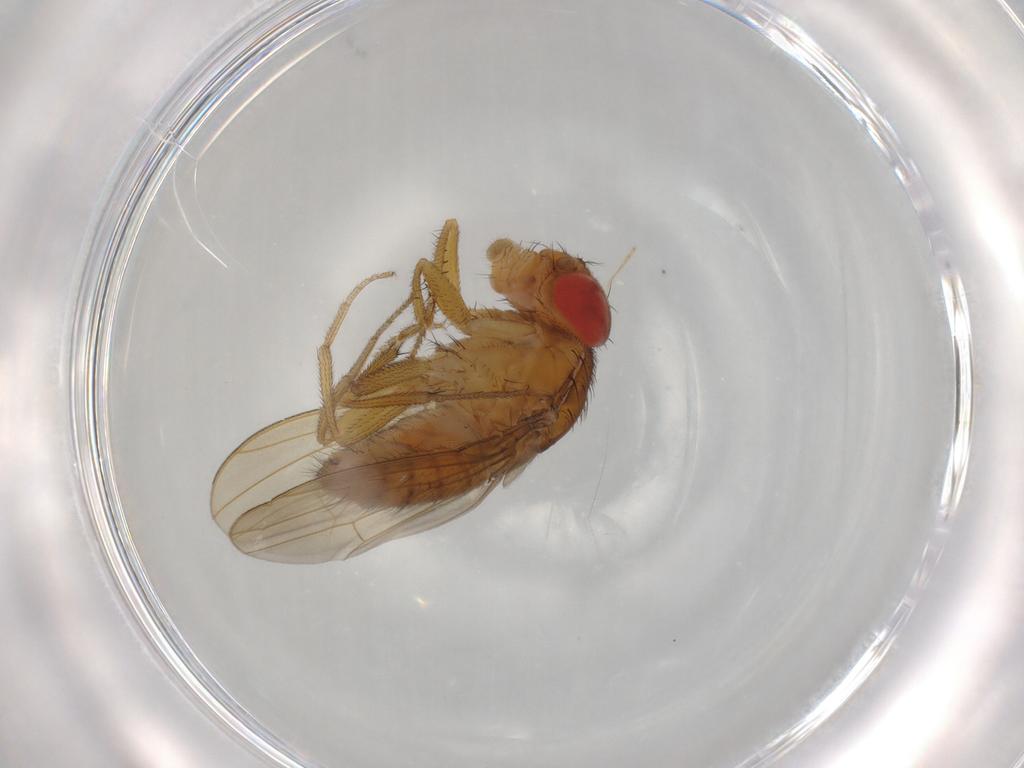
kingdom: Animalia
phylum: Arthropoda
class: Insecta
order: Diptera
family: Drosophilidae
